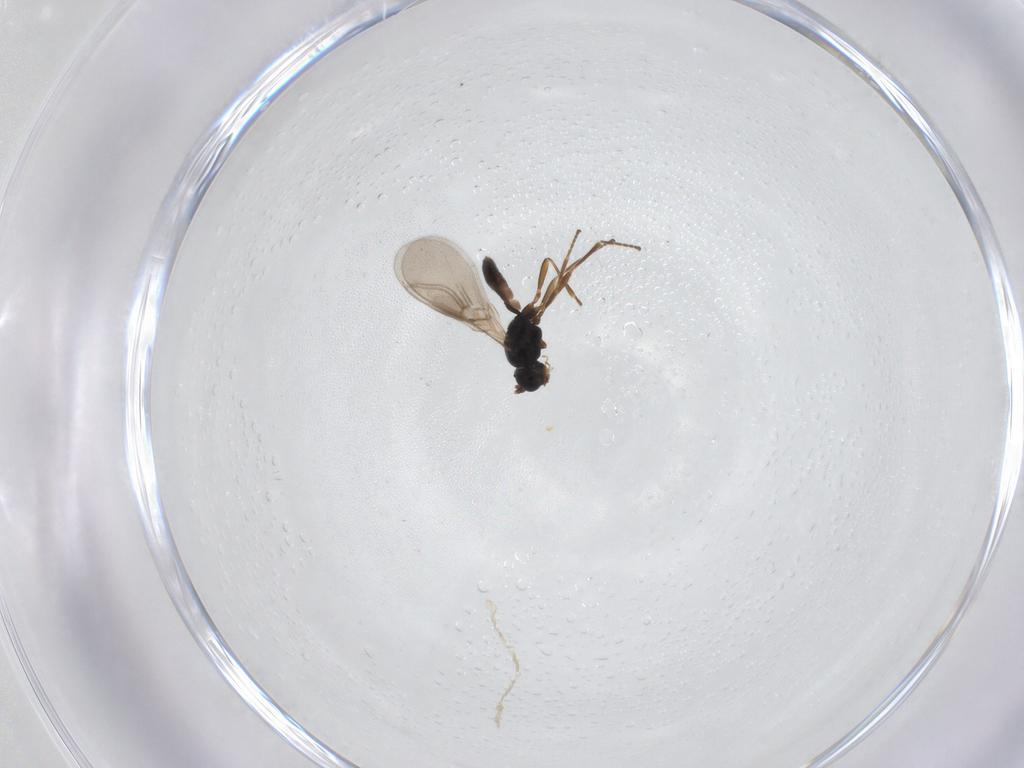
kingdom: Animalia
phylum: Arthropoda
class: Insecta
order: Hymenoptera
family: Braconidae
